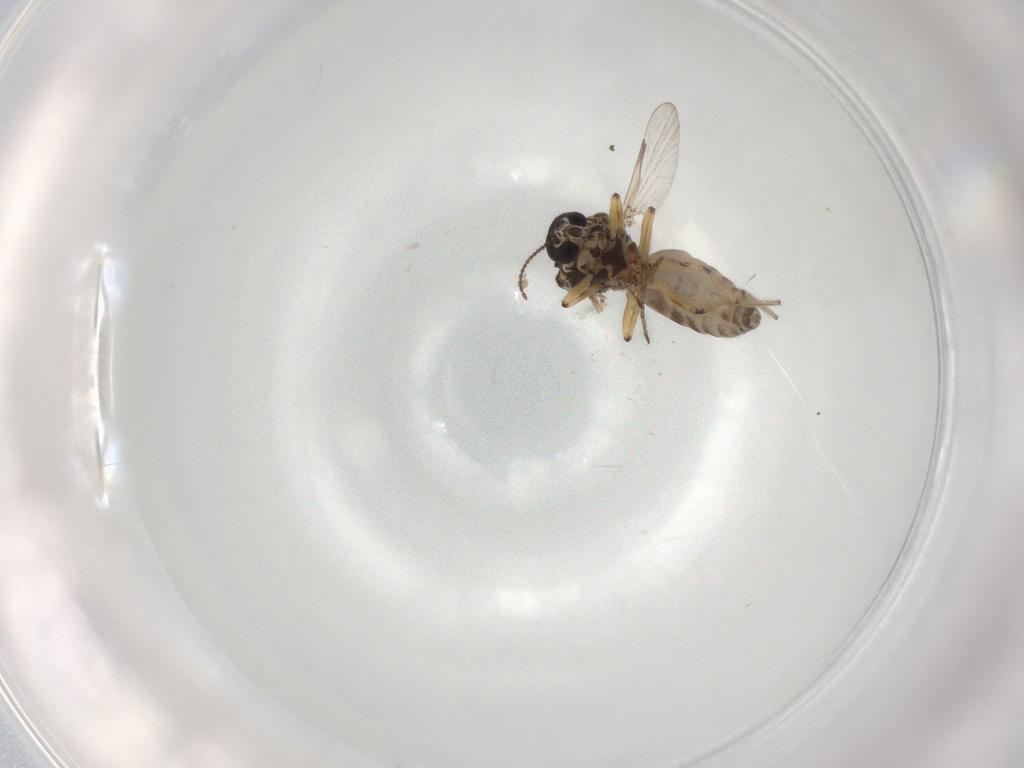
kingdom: Animalia
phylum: Arthropoda
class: Insecta
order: Diptera
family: Ceratopogonidae
